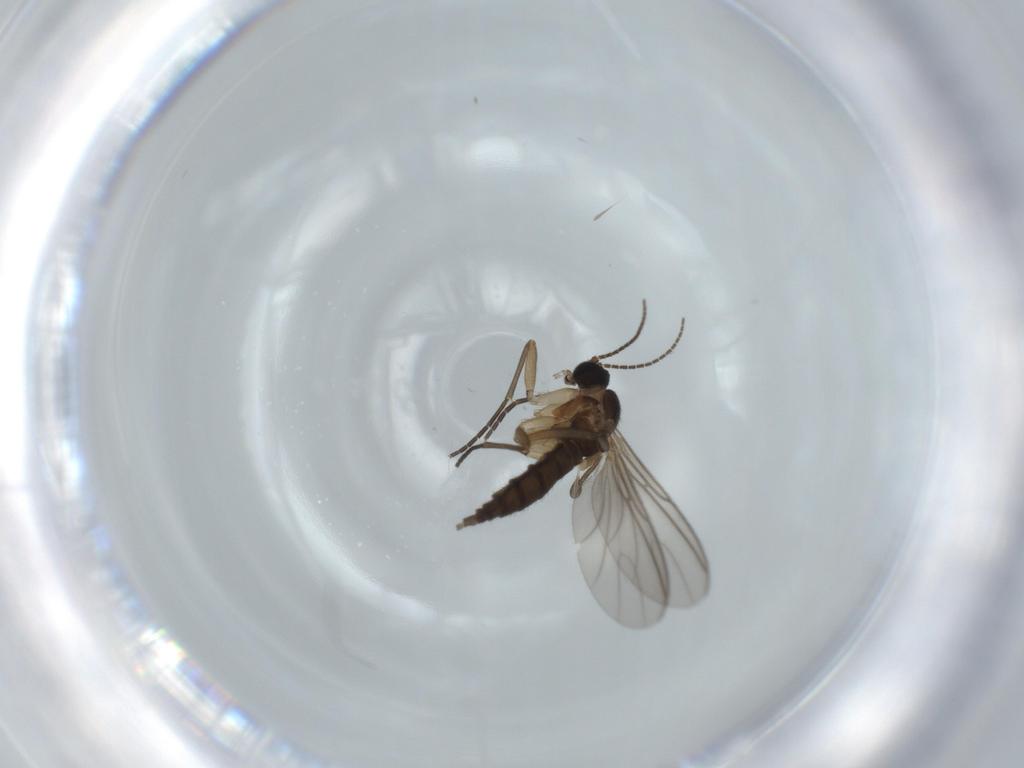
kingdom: Animalia
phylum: Arthropoda
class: Insecta
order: Diptera
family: Sciaridae
